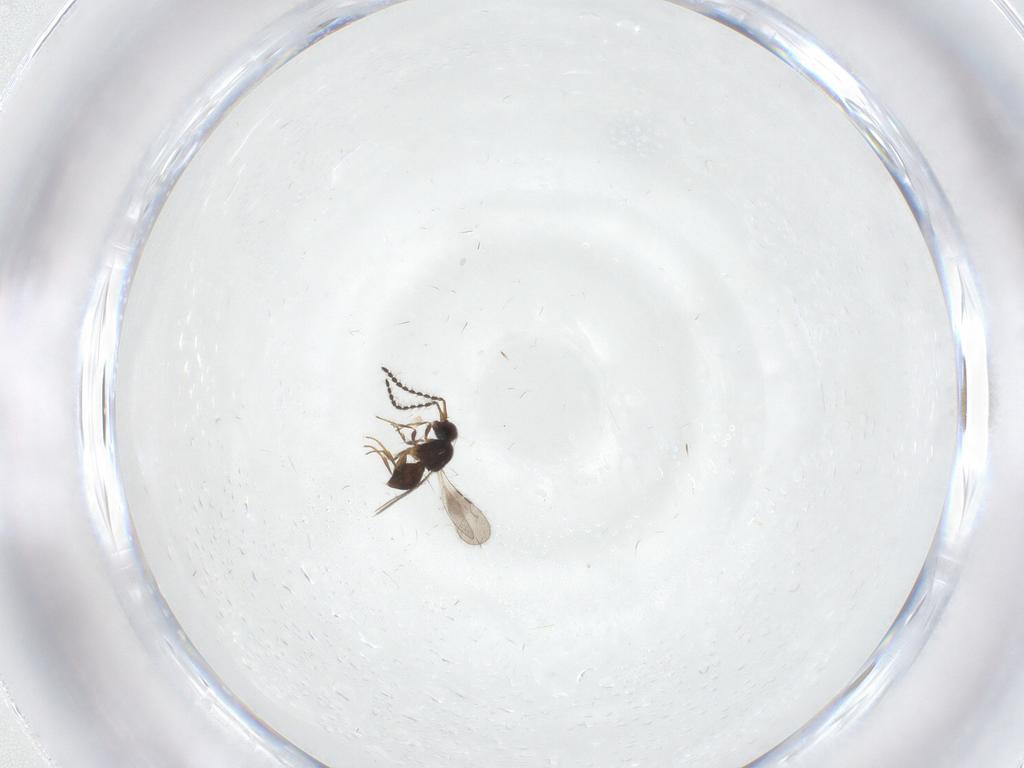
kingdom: Animalia
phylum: Arthropoda
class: Insecta
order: Hymenoptera
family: Ceraphronidae
